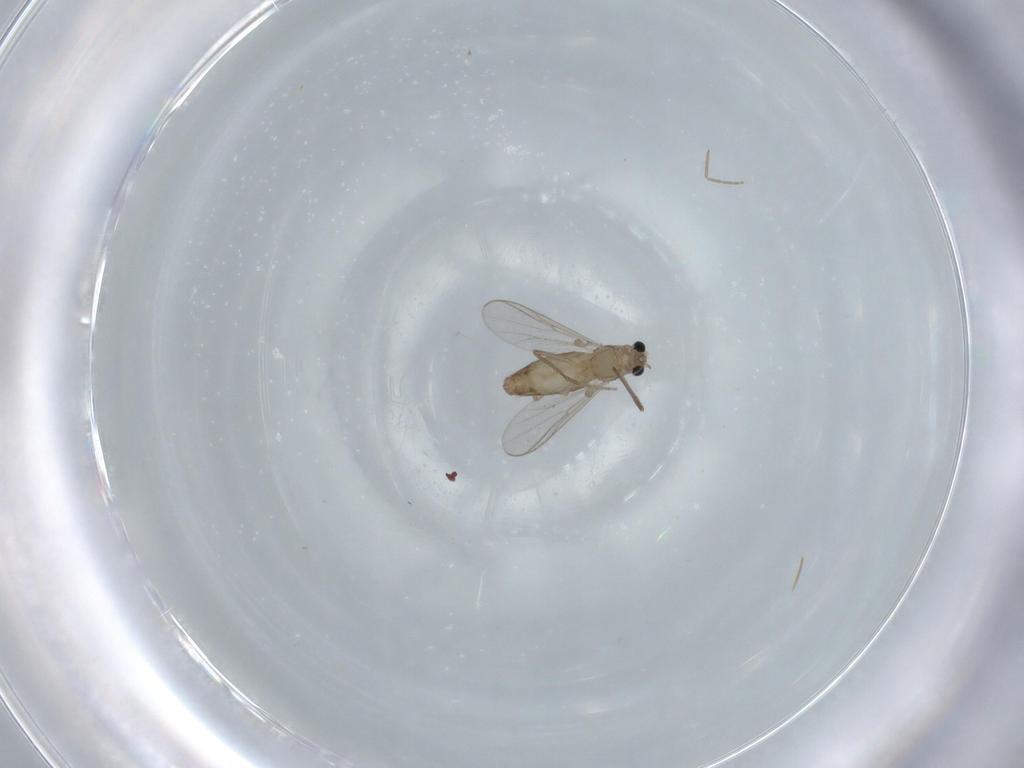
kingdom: Animalia
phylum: Arthropoda
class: Insecta
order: Diptera
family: Chironomidae
